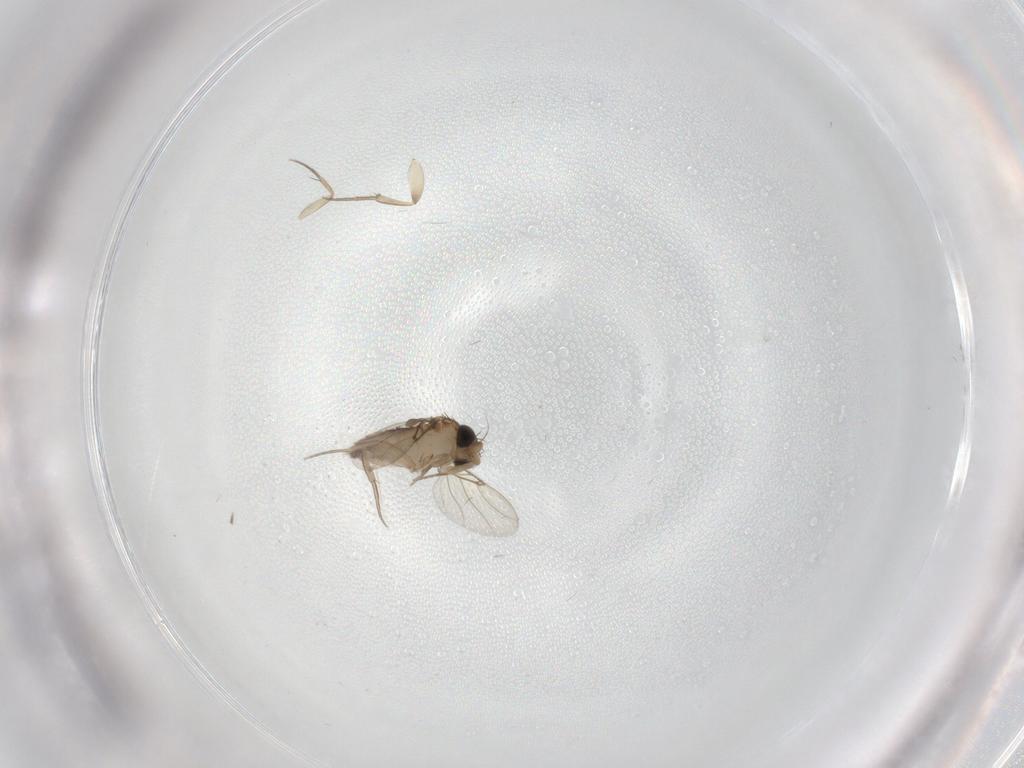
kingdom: Animalia
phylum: Arthropoda
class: Insecta
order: Diptera
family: Phoridae
